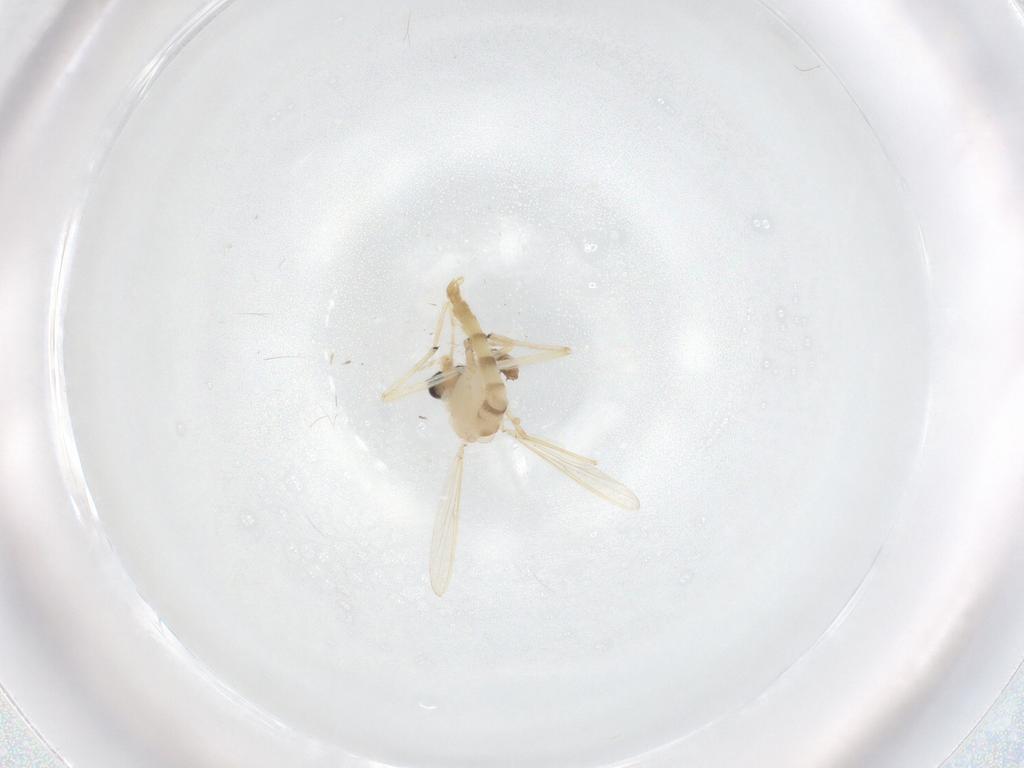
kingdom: Animalia
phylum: Arthropoda
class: Insecta
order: Diptera
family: Chironomidae
